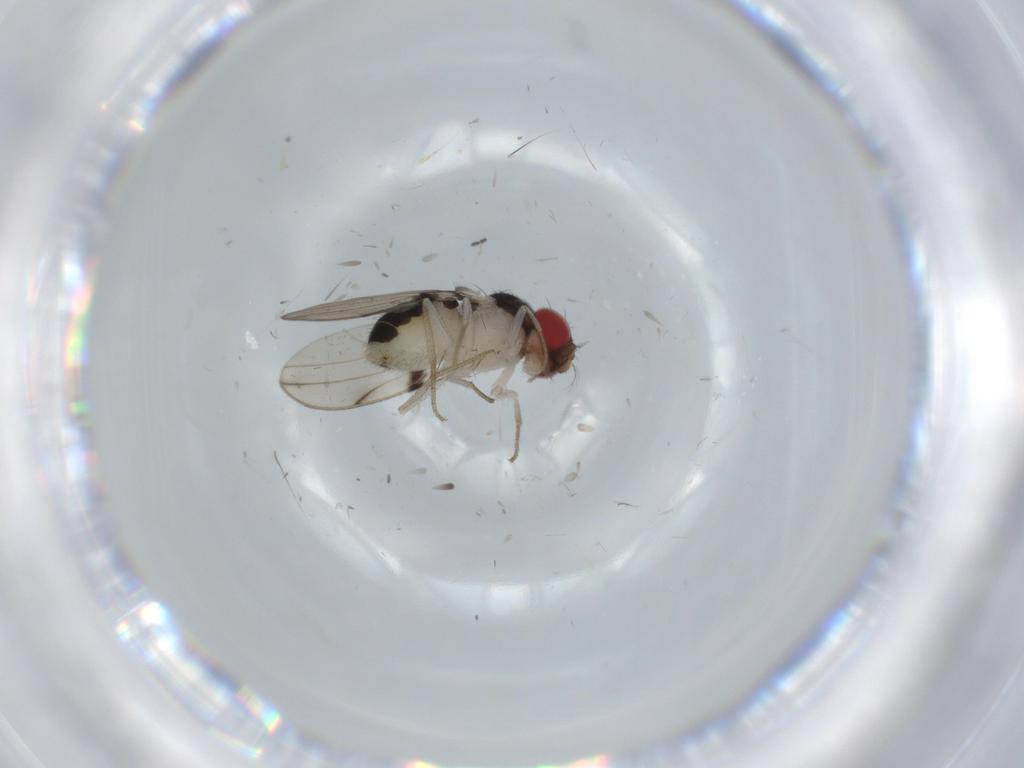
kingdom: Animalia
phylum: Arthropoda
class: Insecta
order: Diptera
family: Drosophilidae
